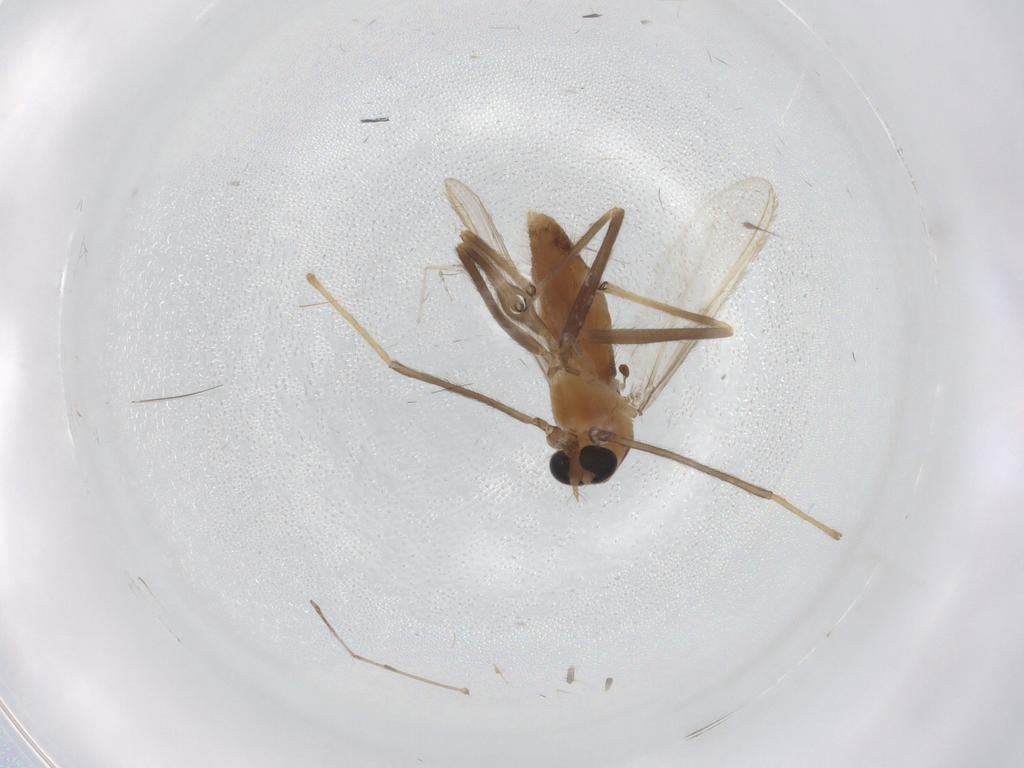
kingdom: Animalia
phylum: Arthropoda
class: Insecta
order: Diptera
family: Chironomidae
